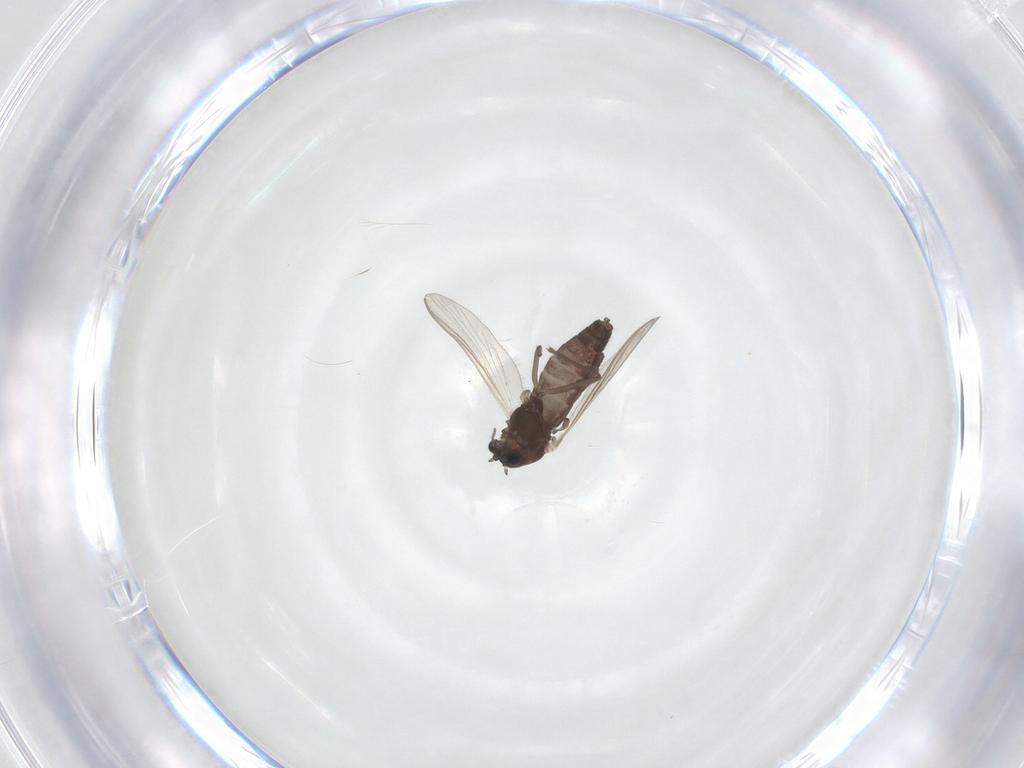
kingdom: Animalia
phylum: Arthropoda
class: Insecta
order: Diptera
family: Chironomidae
